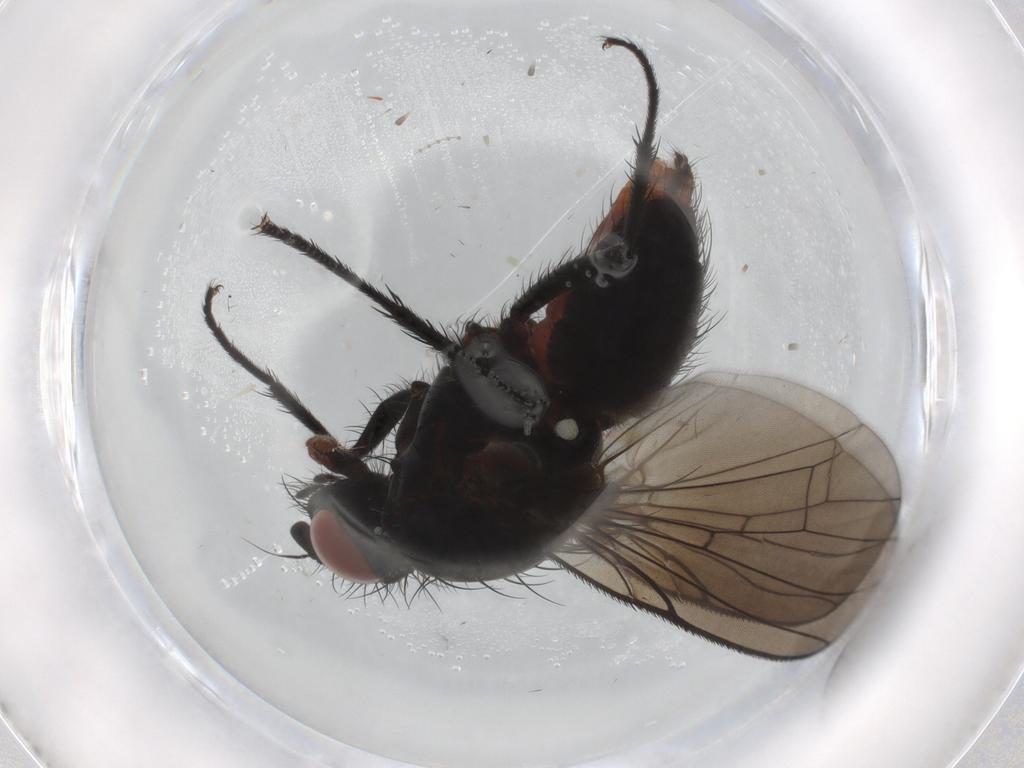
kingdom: Animalia
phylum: Arthropoda
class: Insecta
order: Diptera
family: Anthomyiidae
